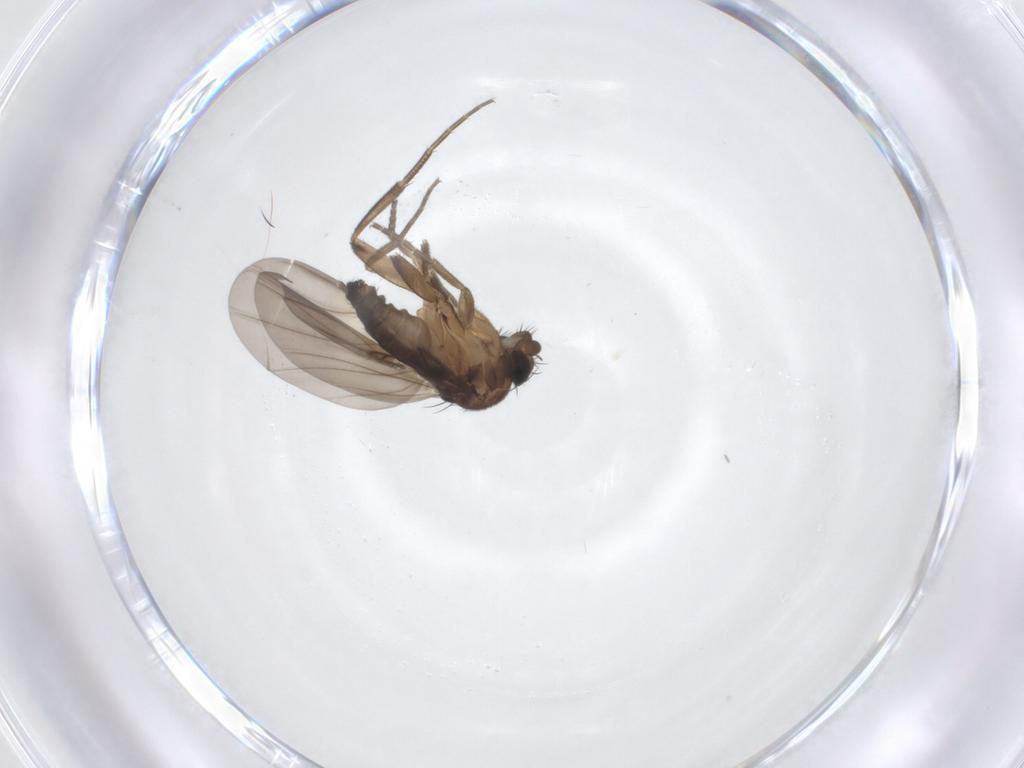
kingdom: Animalia
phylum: Arthropoda
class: Insecta
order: Diptera
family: Phoridae
